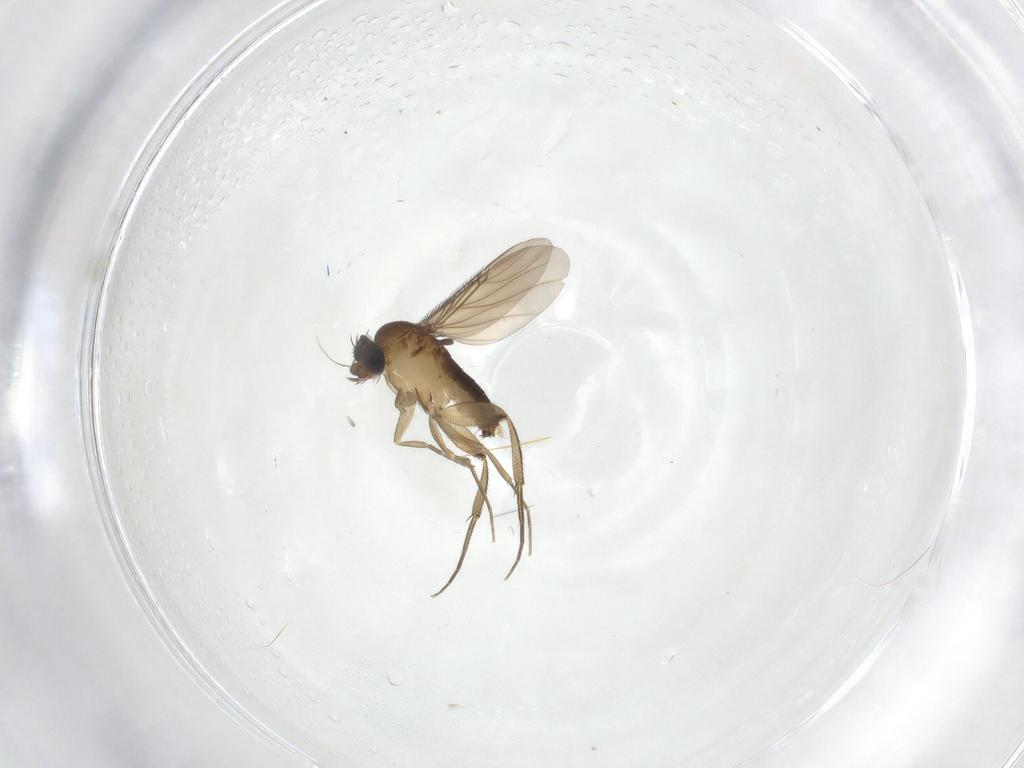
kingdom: Animalia
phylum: Arthropoda
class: Insecta
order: Diptera
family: Phoridae
